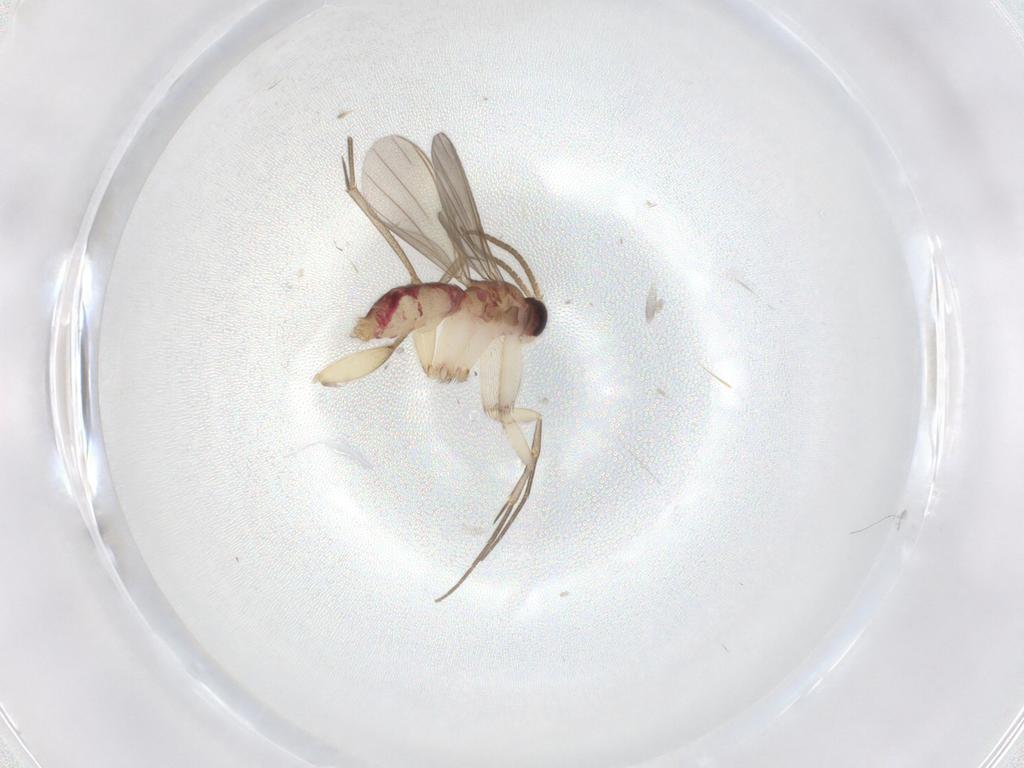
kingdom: Animalia
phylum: Arthropoda
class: Insecta
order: Diptera
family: Mycetophilidae
